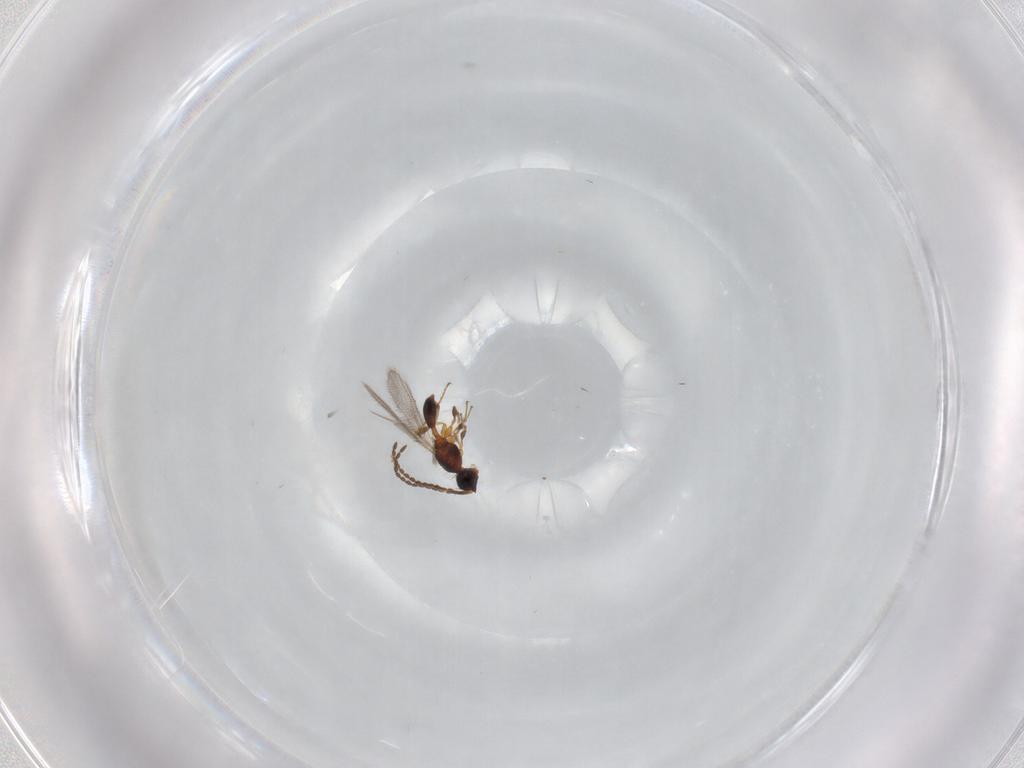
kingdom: Animalia
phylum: Arthropoda
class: Insecta
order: Hymenoptera
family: Diapriidae
